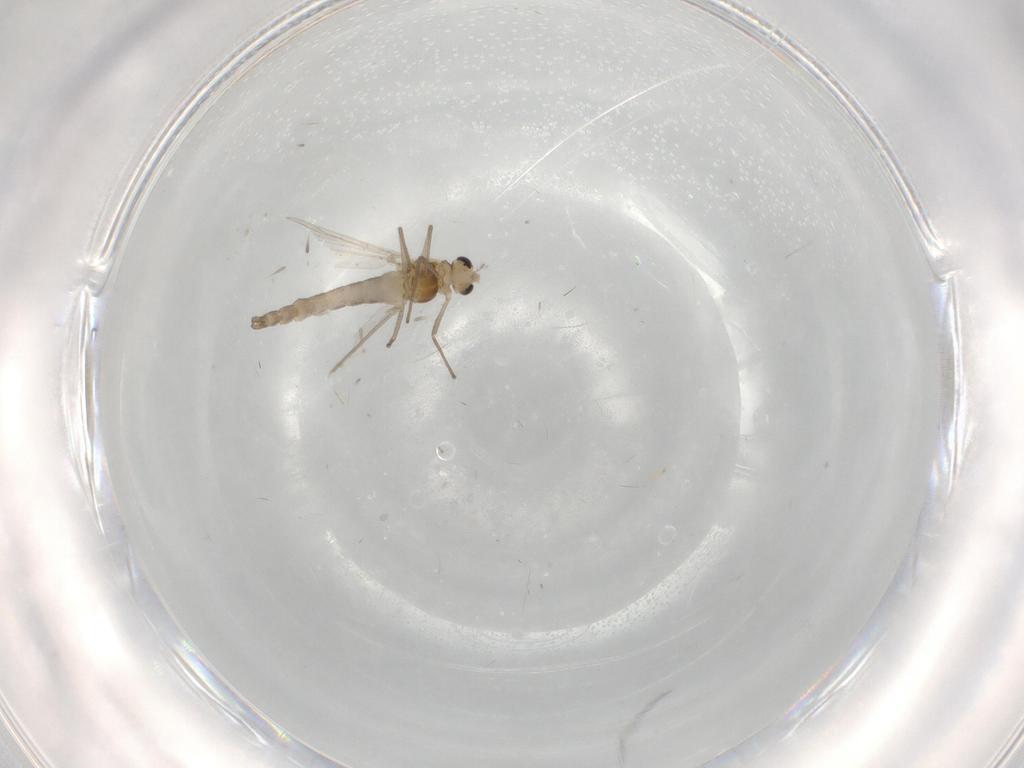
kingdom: Animalia
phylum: Arthropoda
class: Insecta
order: Diptera
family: Chironomidae
